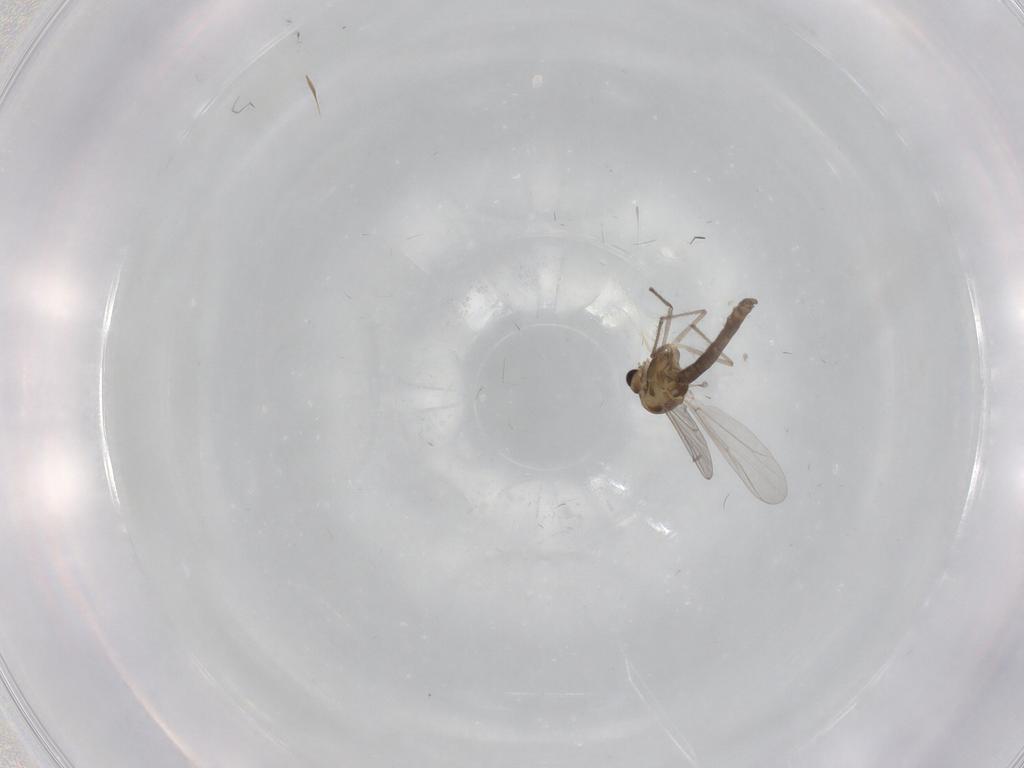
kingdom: Animalia
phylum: Arthropoda
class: Insecta
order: Diptera
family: Chironomidae
